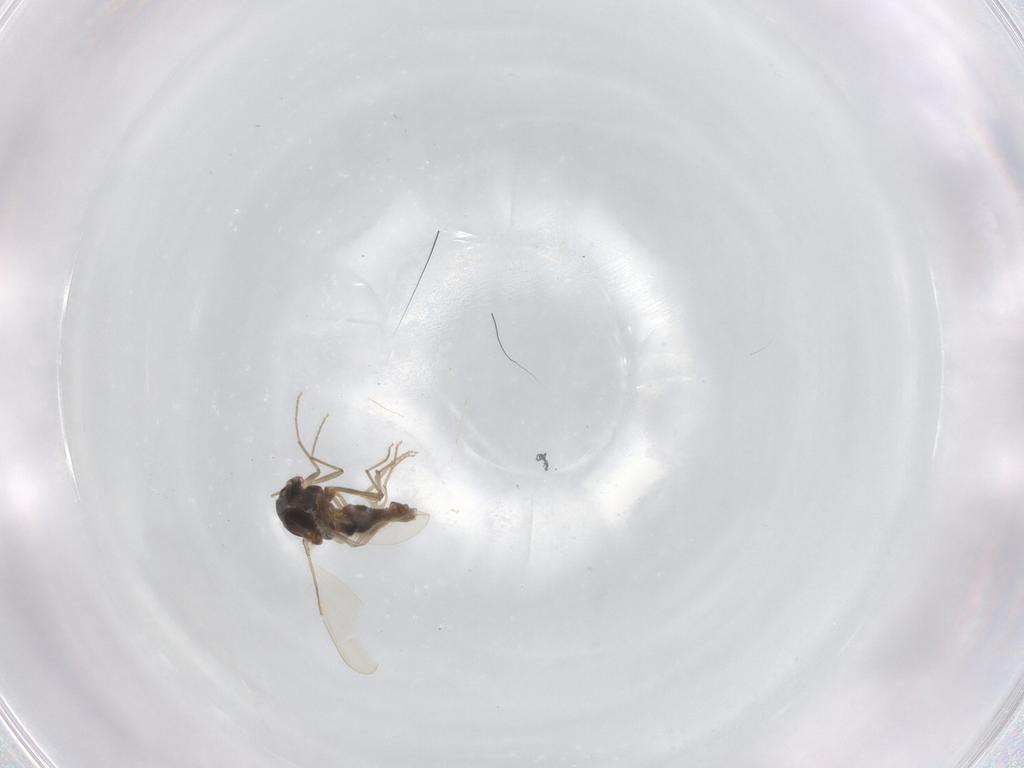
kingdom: Animalia
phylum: Arthropoda
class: Insecta
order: Diptera
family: Chironomidae
